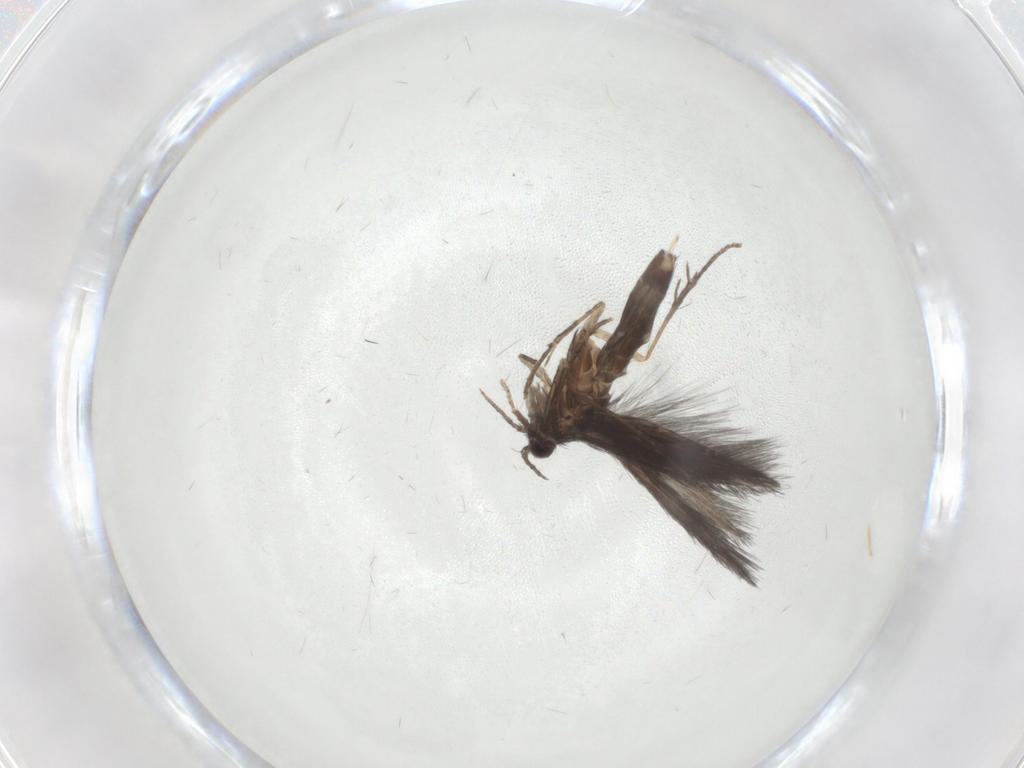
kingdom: Animalia
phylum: Arthropoda
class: Insecta
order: Trichoptera
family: Hydroptilidae
